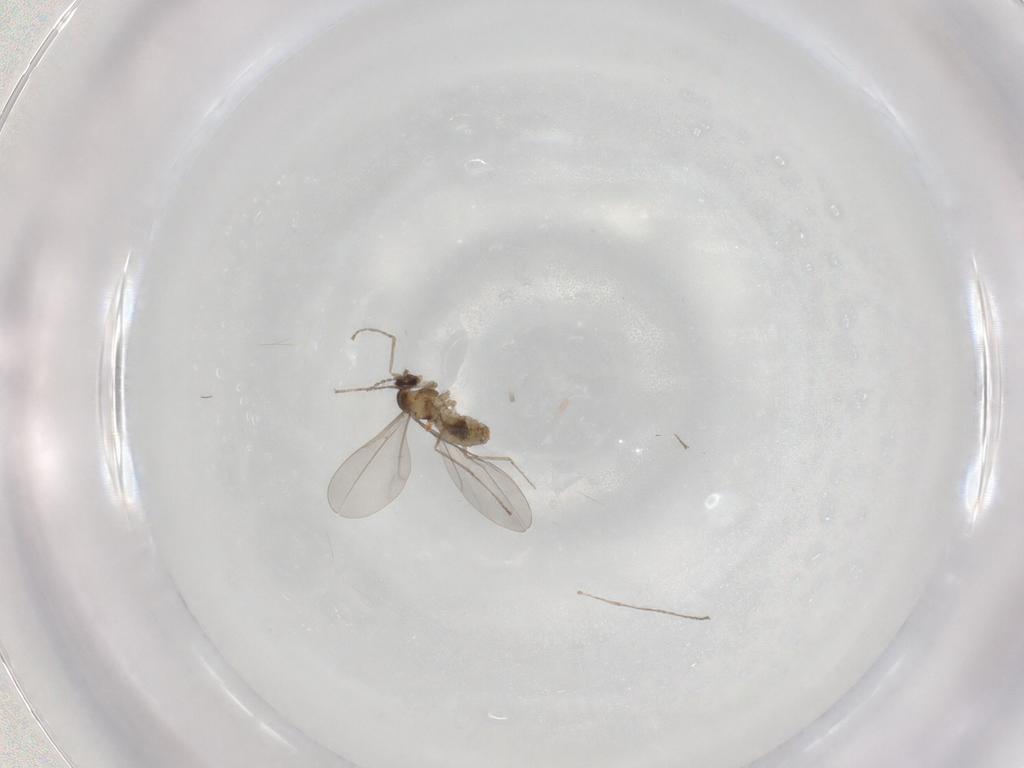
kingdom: Animalia
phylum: Arthropoda
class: Insecta
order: Diptera
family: Cecidomyiidae
